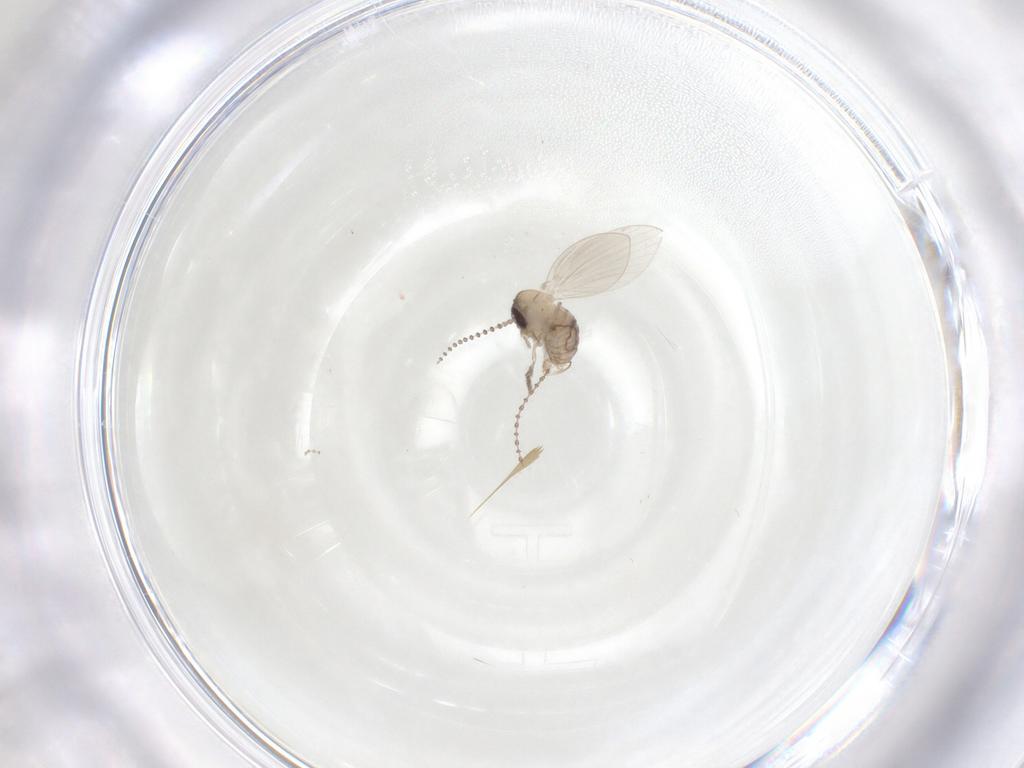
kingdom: Animalia
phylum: Arthropoda
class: Insecta
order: Diptera
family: Psychodidae
